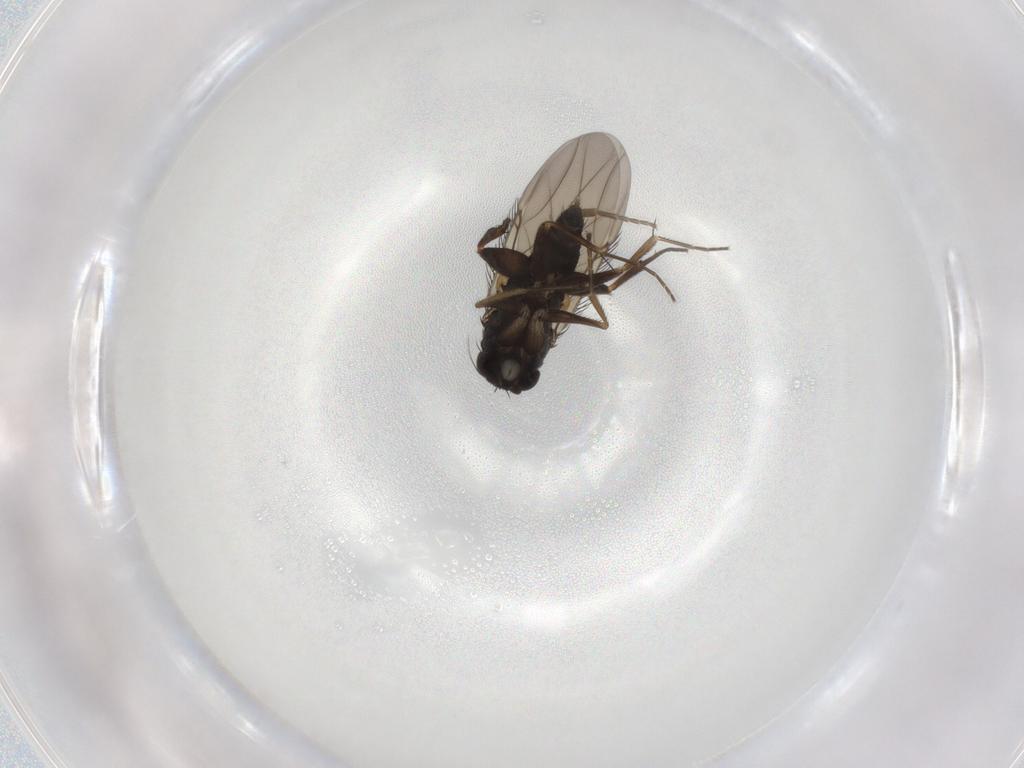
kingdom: Animalia
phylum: Arthropoda
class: Insecta
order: Diptera
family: Phoridae
